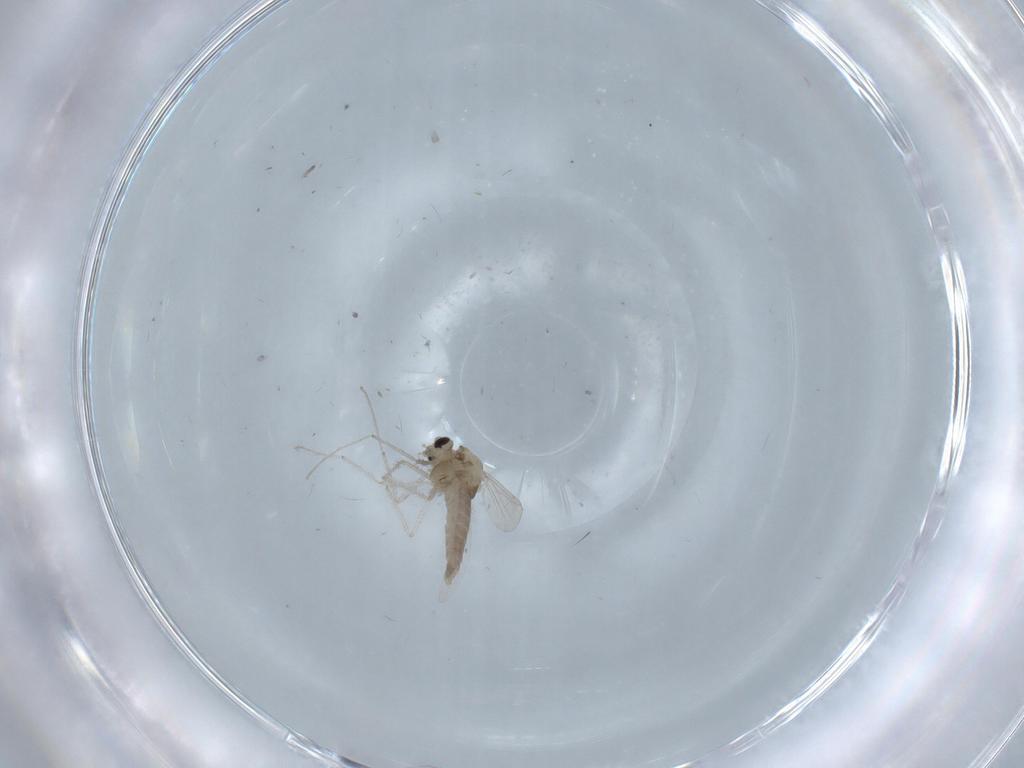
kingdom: Animalia
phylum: Arthropoda
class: Insecta
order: Diptera
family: Chironomidae
